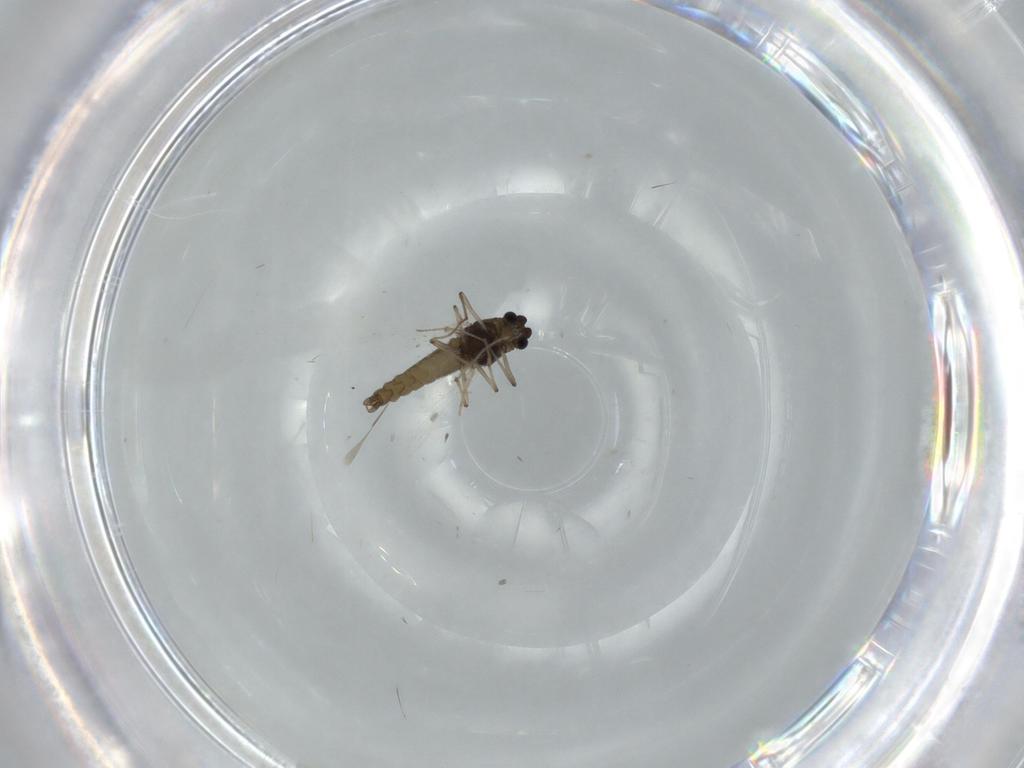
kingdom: Animalia
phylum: Arthropoda
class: Insecta
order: Diptera
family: Chironomidae
